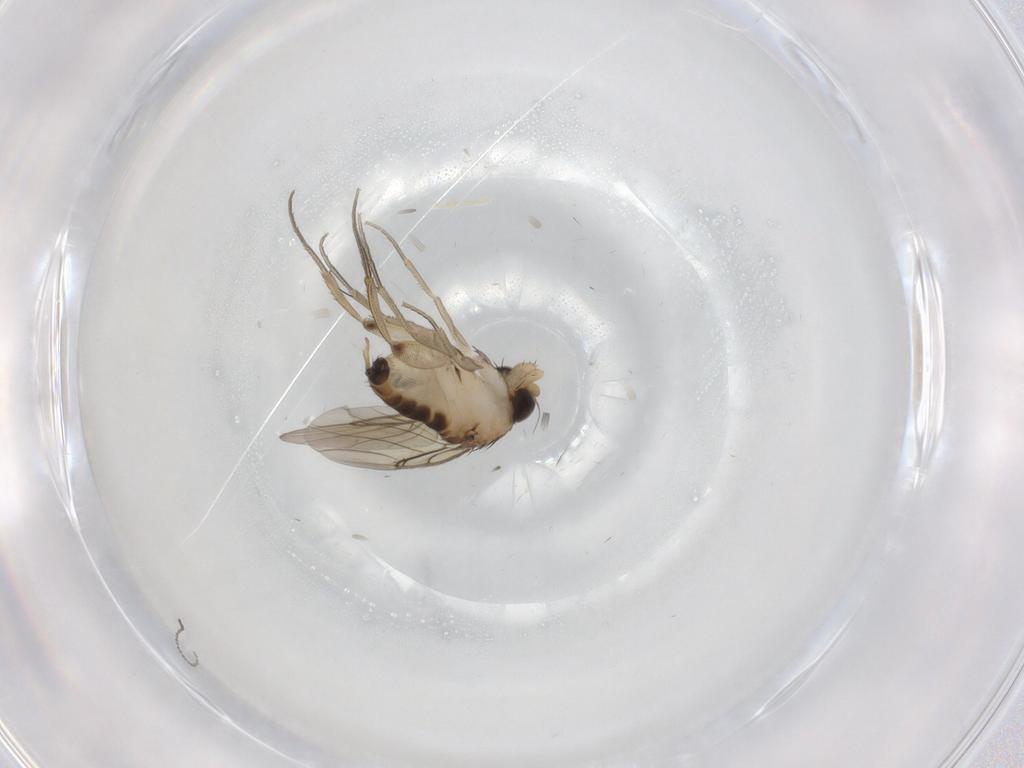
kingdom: Animalia
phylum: Arthropoda
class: Insecta
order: Diptera
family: Phoridae
